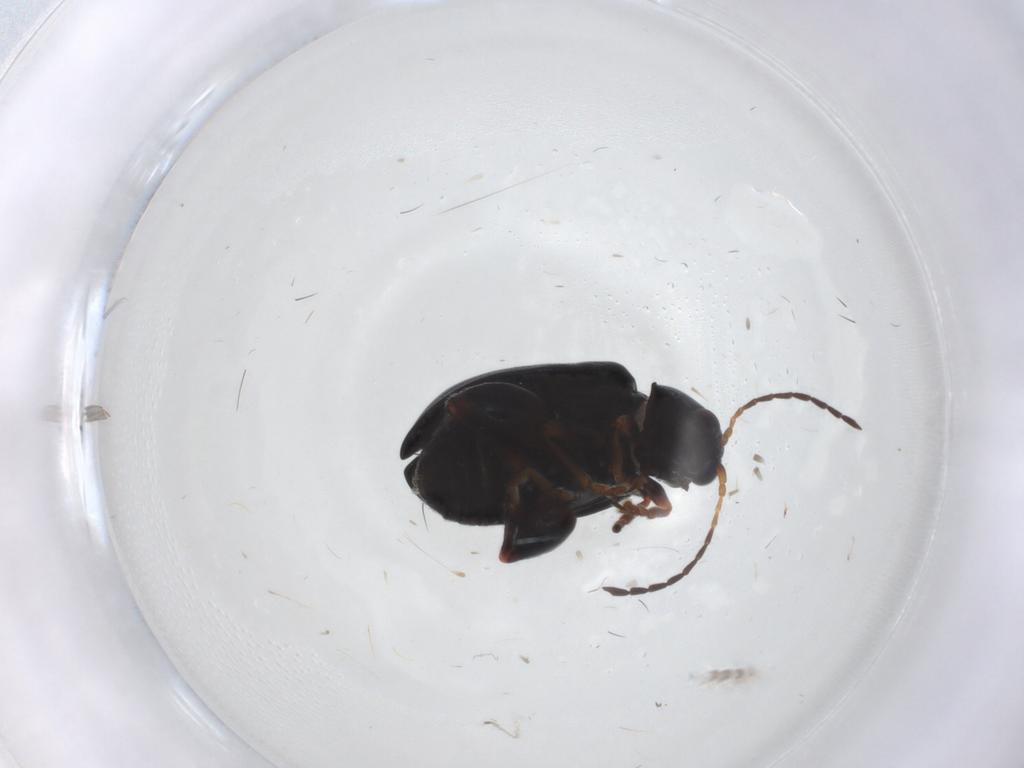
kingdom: Animalia
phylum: Arthropoda
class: Insecta
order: Coleoptera
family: Chrysomelidae
